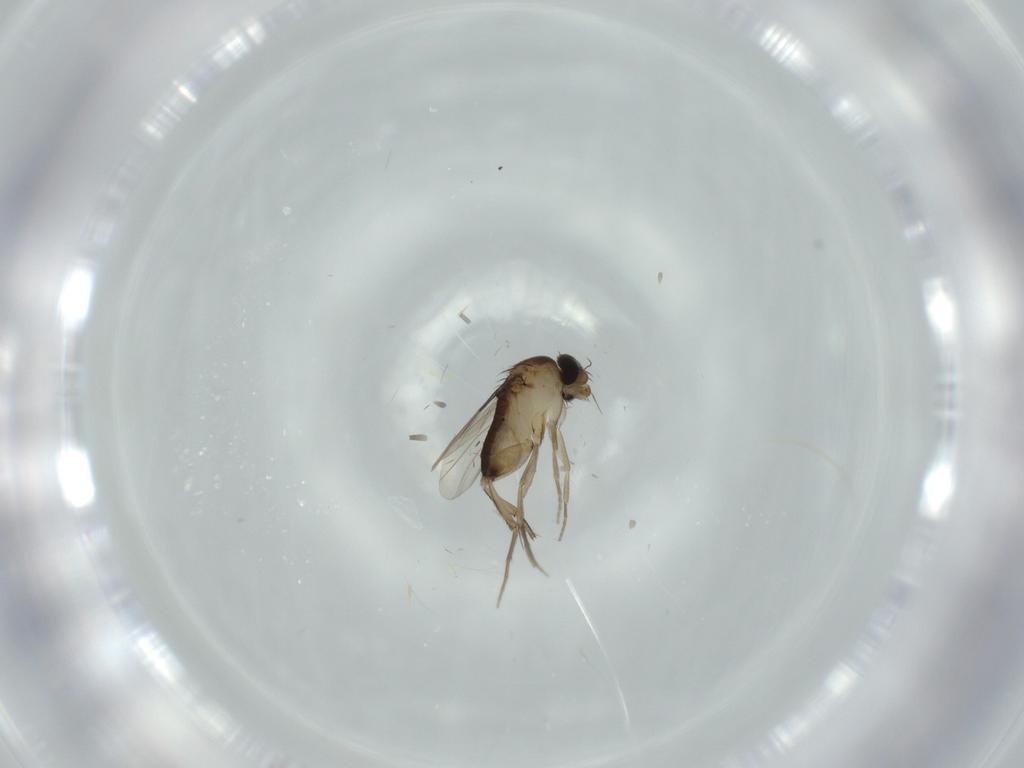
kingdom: Animalia
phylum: Arthropoda
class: Insecta
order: Diptera
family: Phoridae
